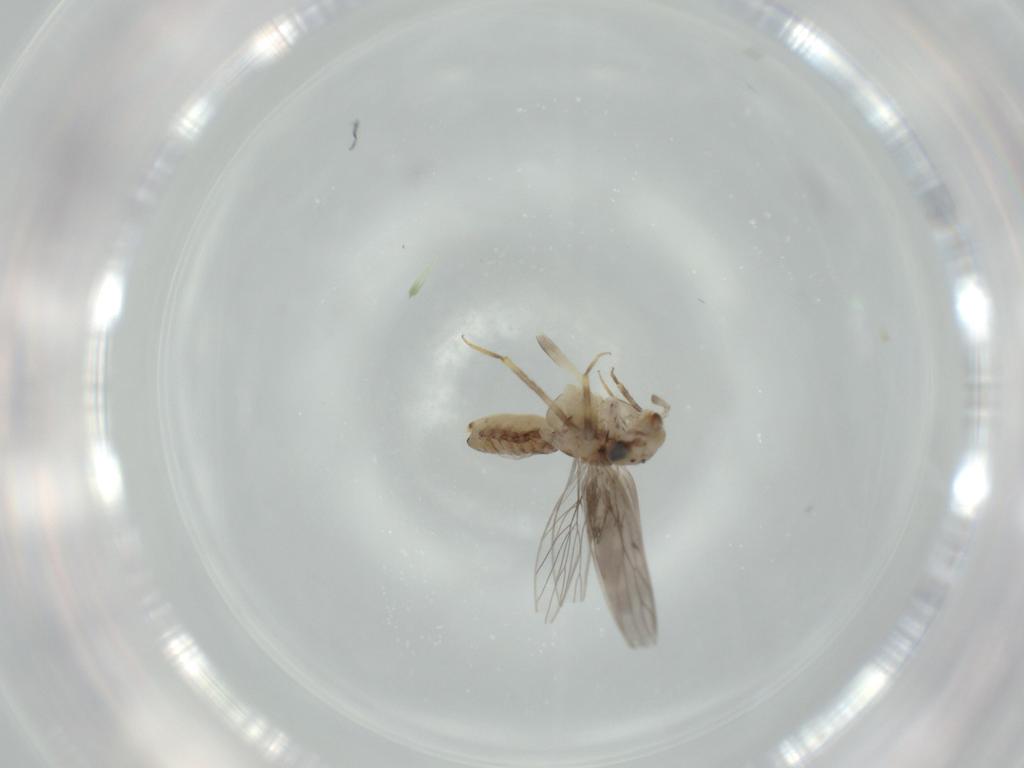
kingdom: Animalia
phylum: Arthropoda
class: Insecta
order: Psocodea
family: Lepidopsocidae
